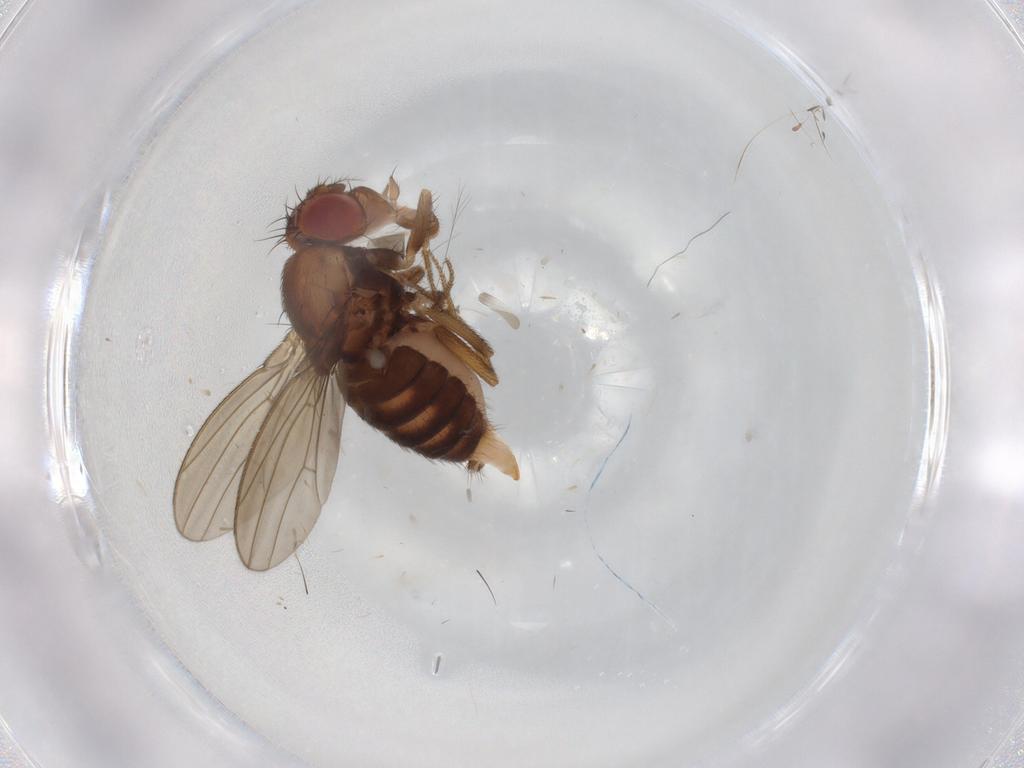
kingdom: Animalia
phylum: Arthropoda
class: Insecta
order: Diptera
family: Drosophilidae
